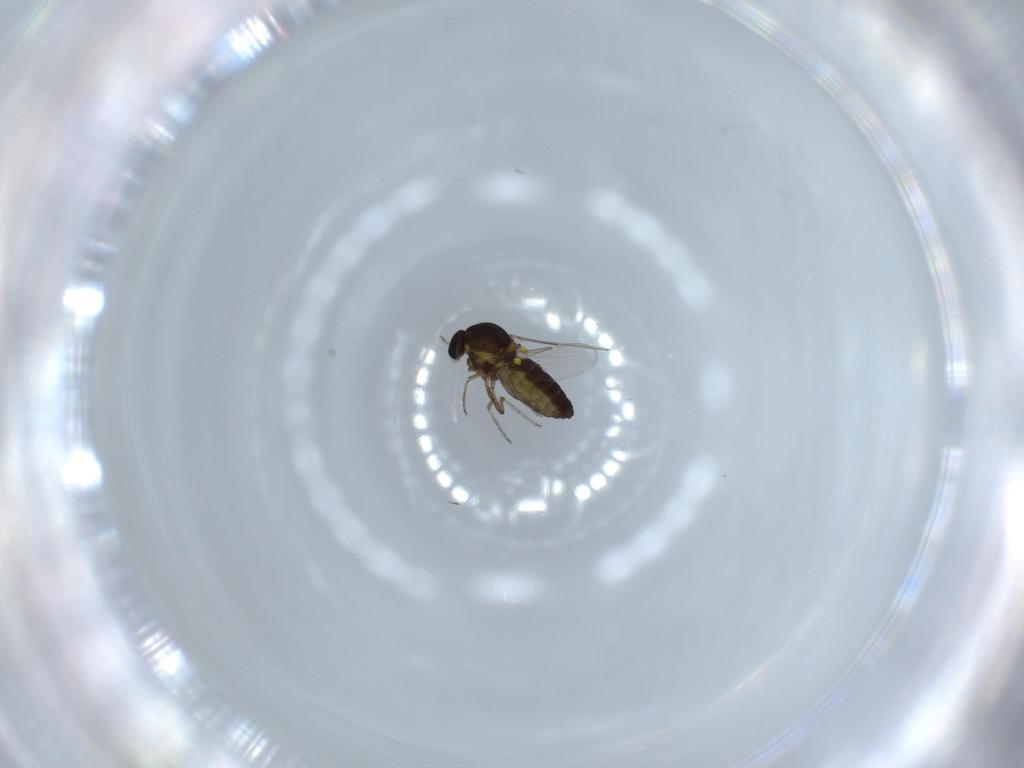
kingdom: Animalia
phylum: Arthropoda
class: Insecta
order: Diptera
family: Ceratopogonidae
